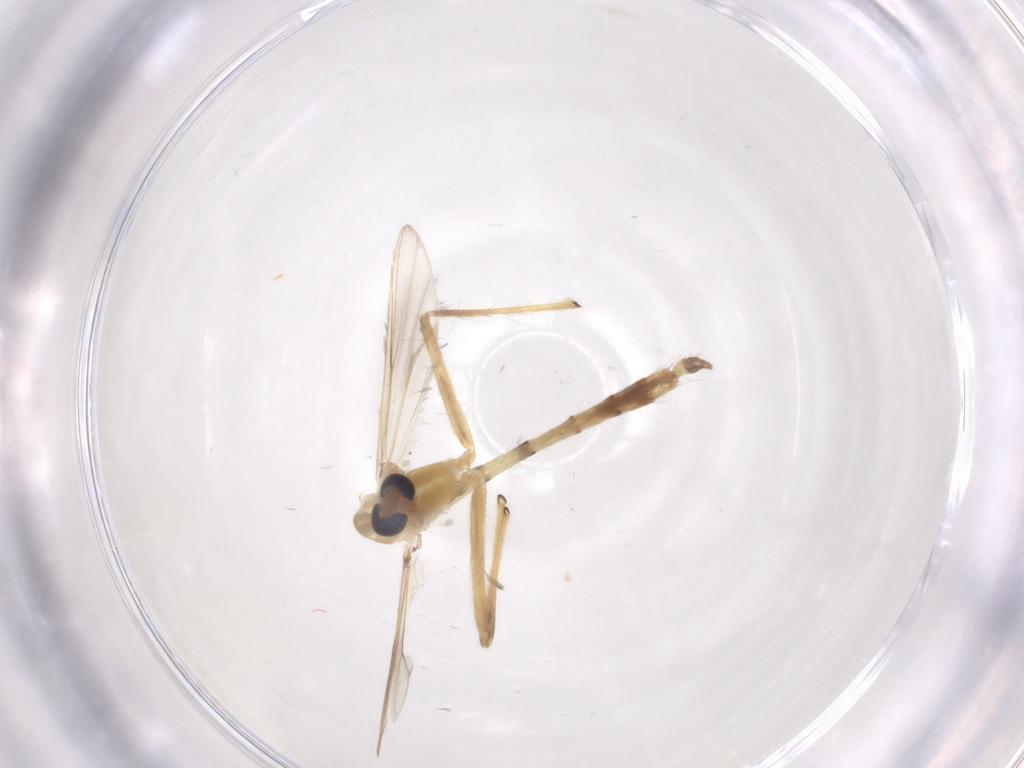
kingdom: Animalia
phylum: Arthropoda
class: Insecta
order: Diptera
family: Chironomidae
